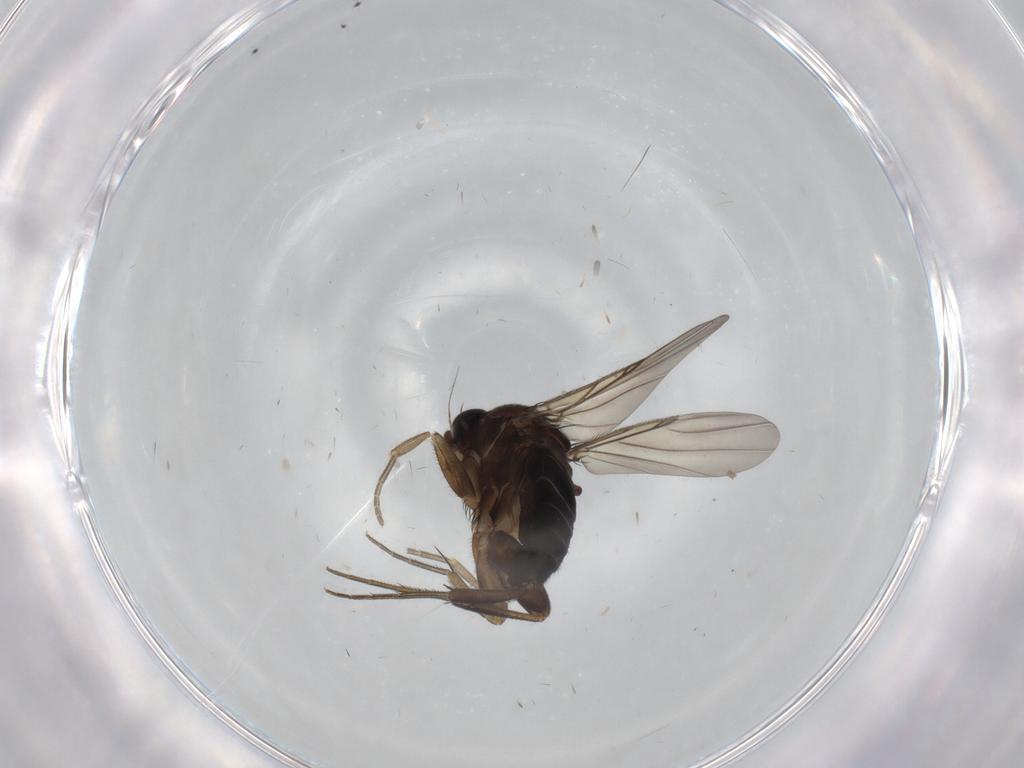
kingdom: Animalia
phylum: Arthropoda
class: Insecta
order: Diptera
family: Phoridae
